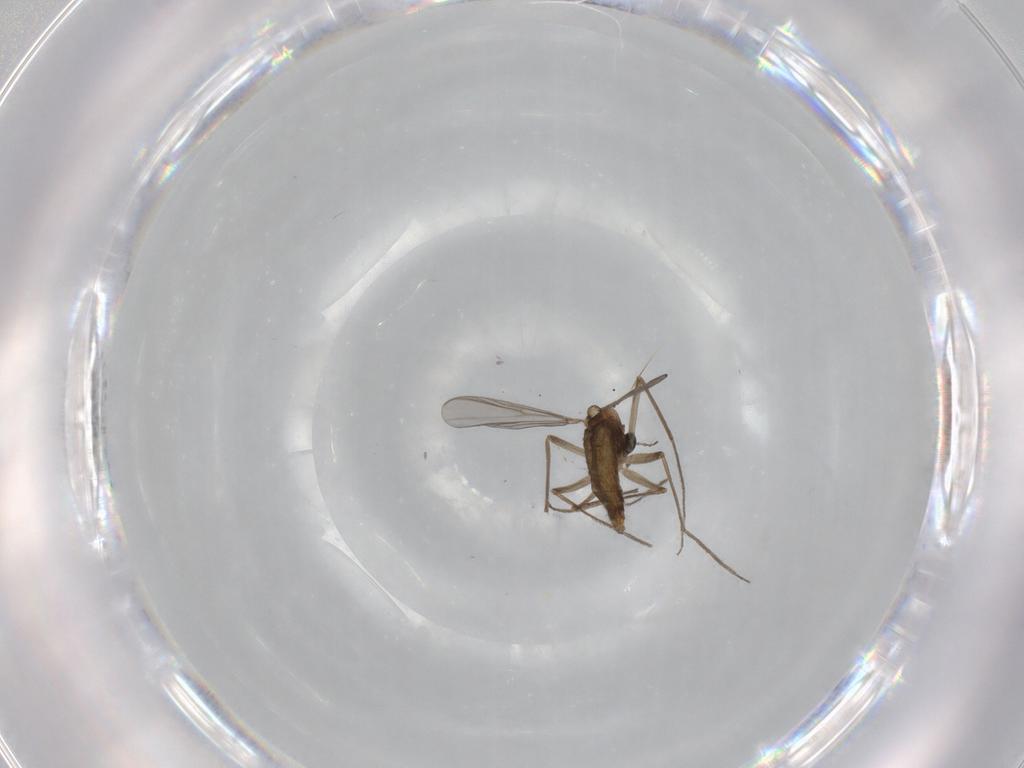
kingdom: Animalia
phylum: Arthropoda
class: Insecta
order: Diptera
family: Chironomidae
